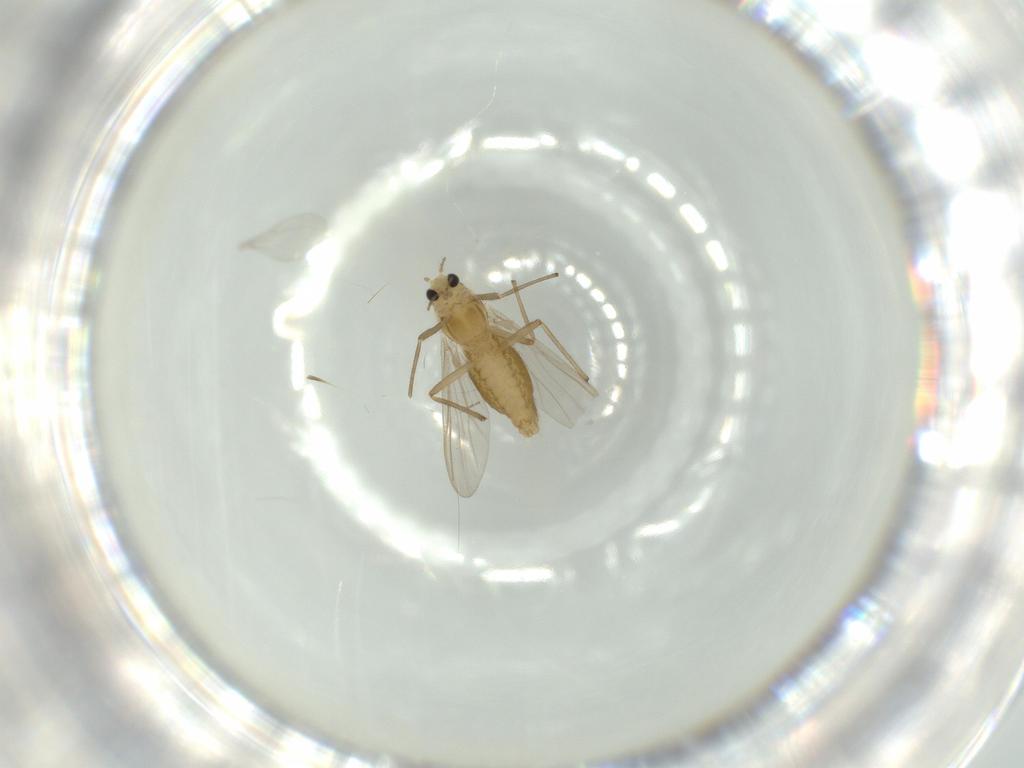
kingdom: Animalia
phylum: Arthropoda
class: Insecta
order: Diptera
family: Chironomidae
